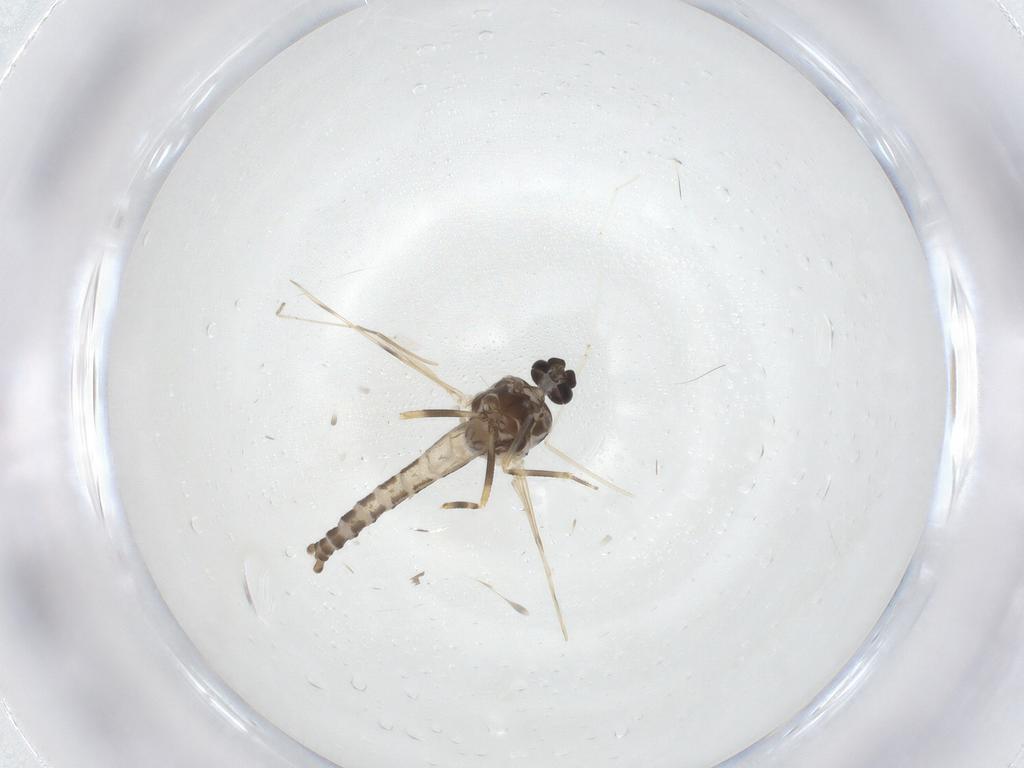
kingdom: Animalia
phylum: Arthropoda
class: Insecta
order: Diptera
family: Ceratopogonidae
